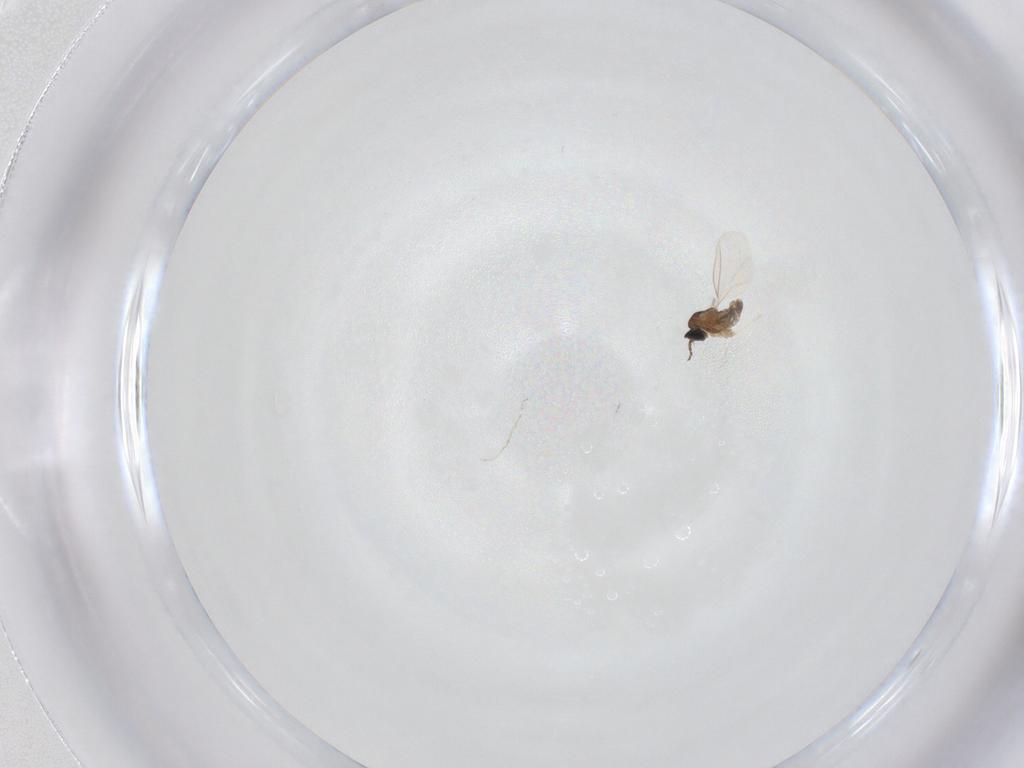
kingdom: Animalia
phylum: Arthropoda
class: Insecta
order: Diptera
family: Cecidomyiidae
